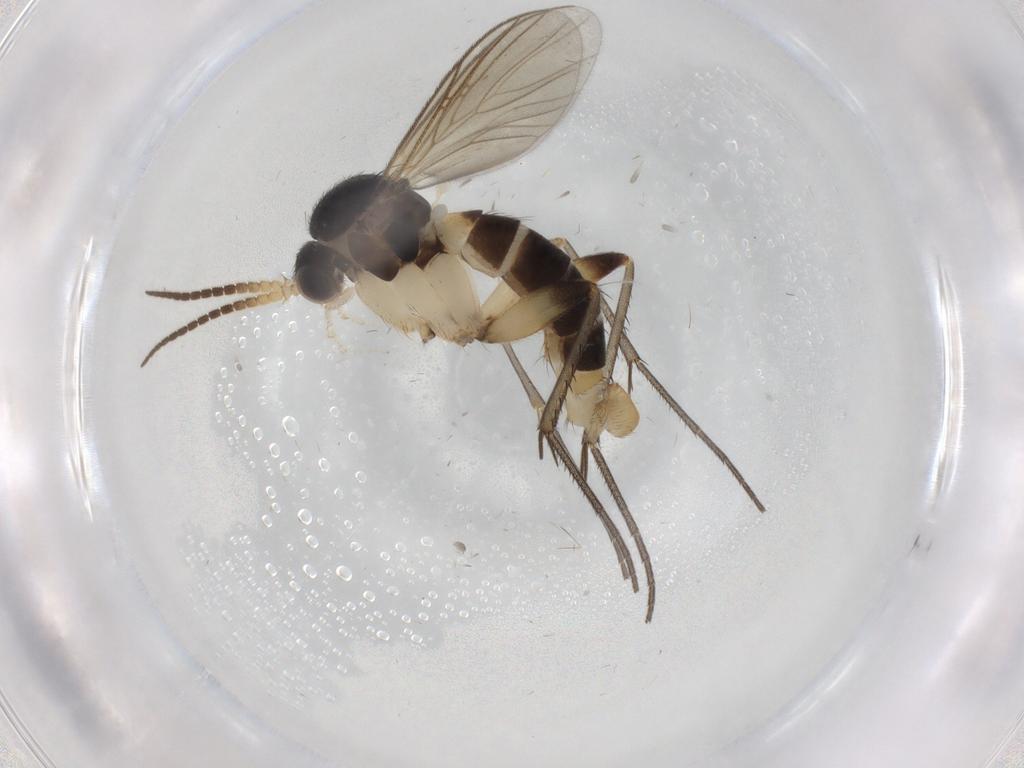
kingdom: Animalia
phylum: Arthropoda
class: Insecta
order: Diptera
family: Mycetophilidae
